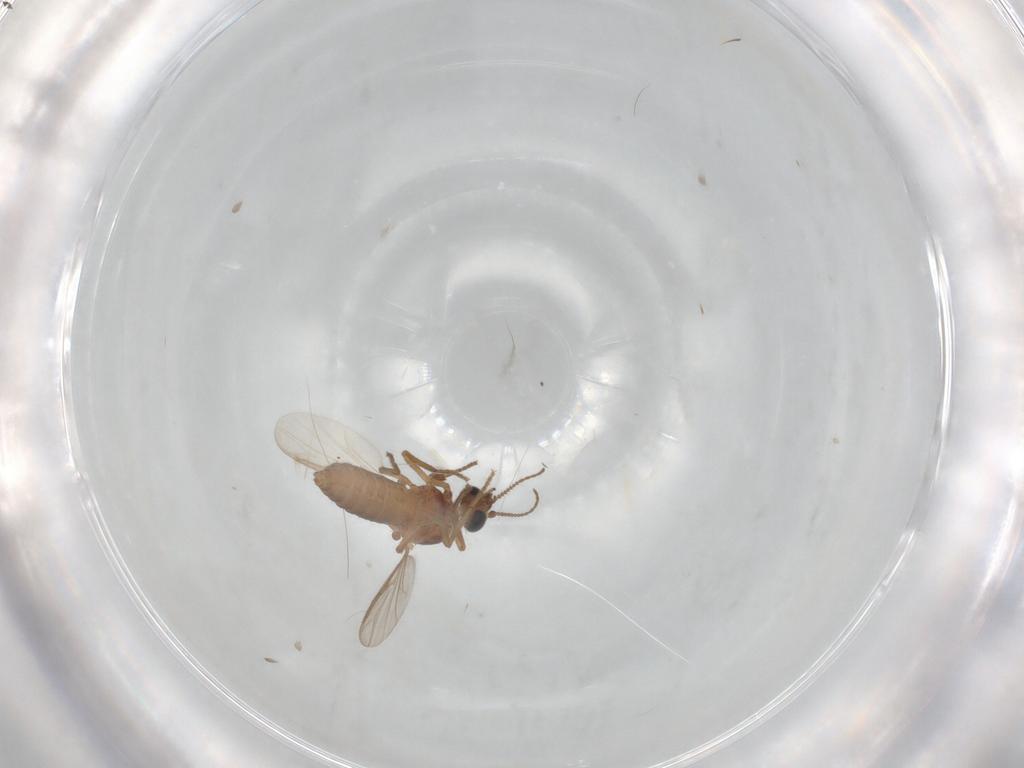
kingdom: Animalia
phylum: Arthropoda
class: Insecta
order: Diptera
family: Ceratopogonidae
